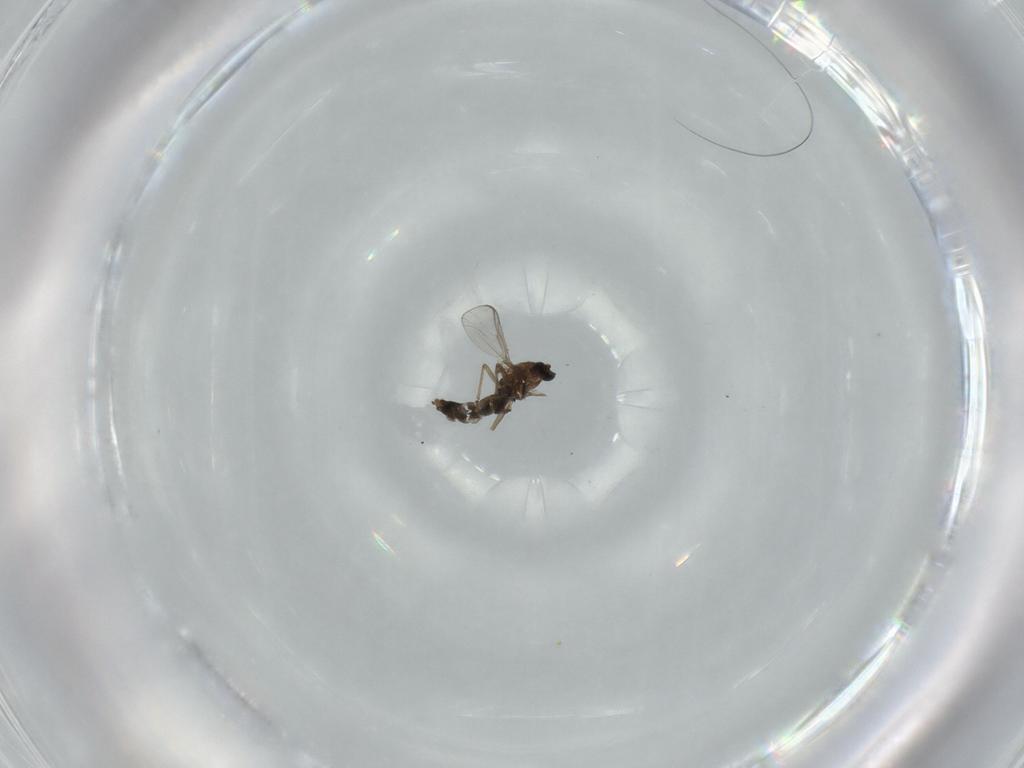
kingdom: Animalia
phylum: Arthropoda
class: Insecta
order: Diptera
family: Chironomidae
